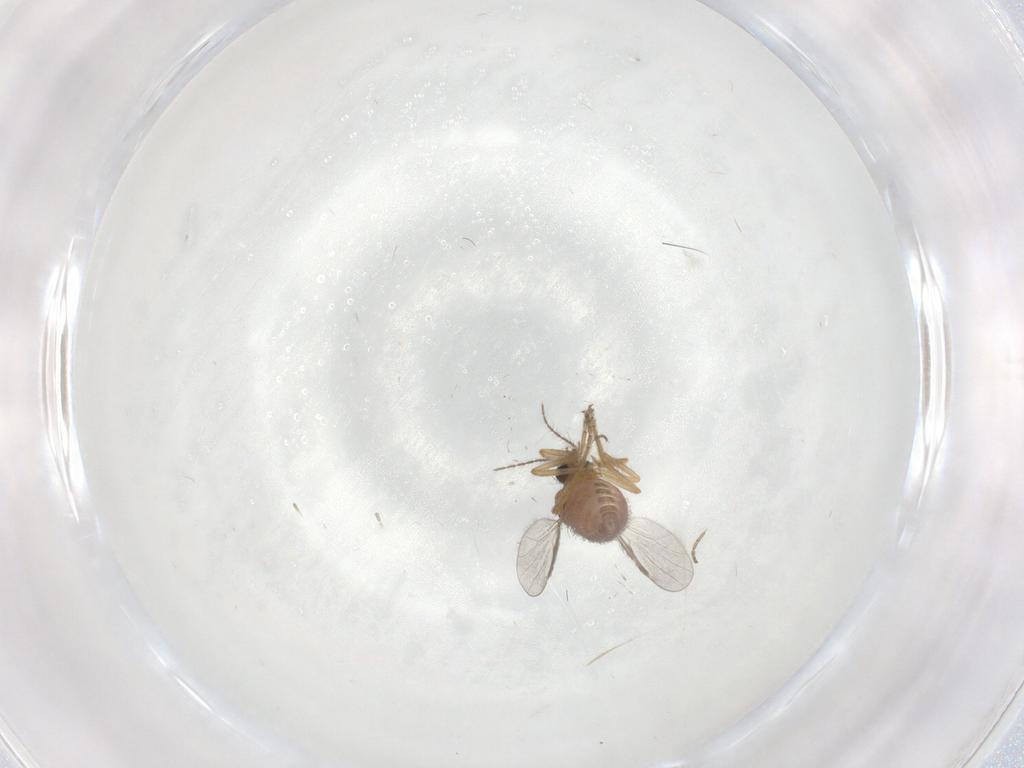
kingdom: Animalia
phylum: Arthropoda
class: Insecta
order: Diptera
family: Ceratopogonidae
